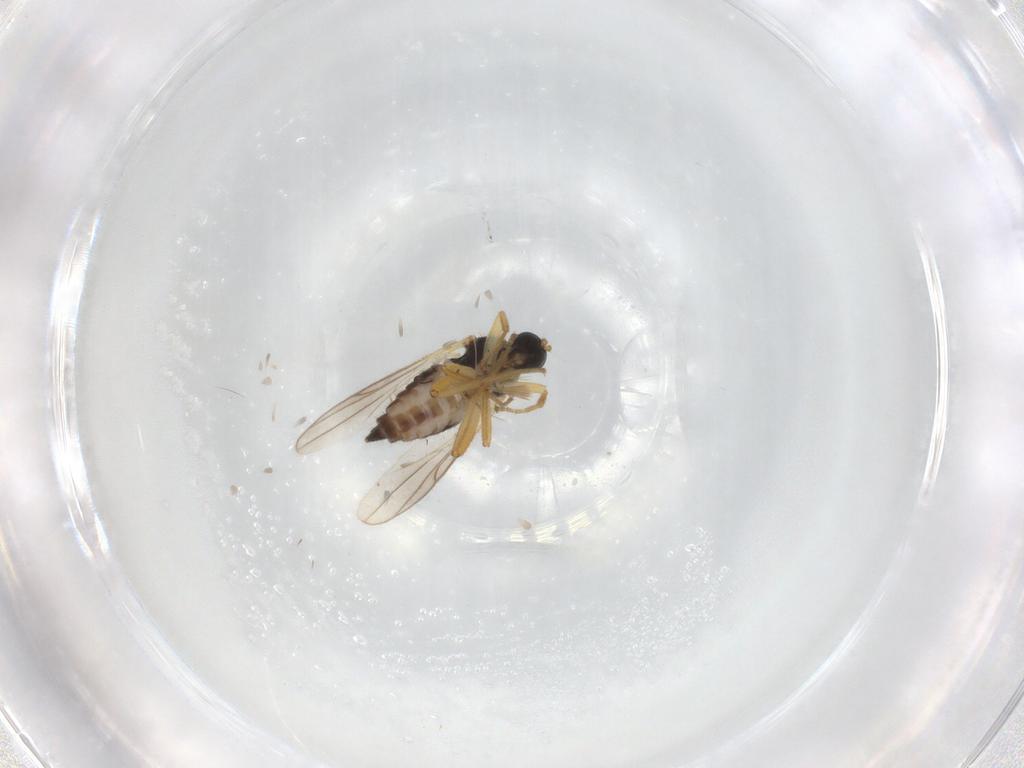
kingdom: Animalia
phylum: Arthropoda
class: Insecta
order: Diptera
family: Hybotidae
